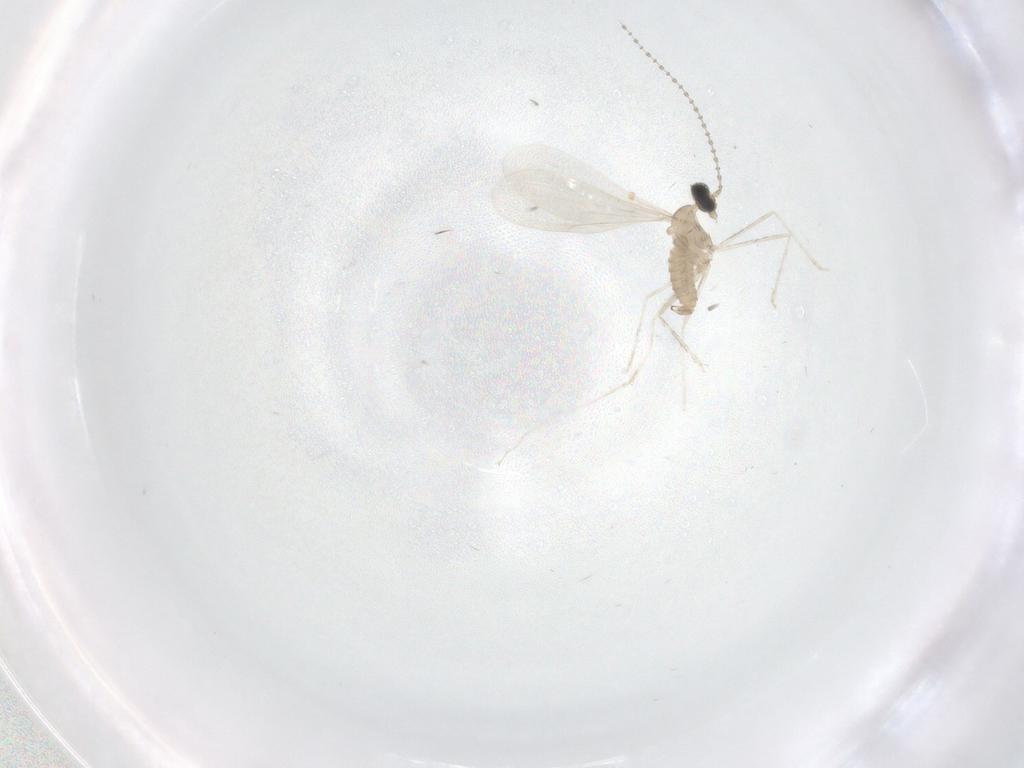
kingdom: Animalia
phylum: Arthropoda
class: Insecta
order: Diptera
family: Cecidomyiidae
